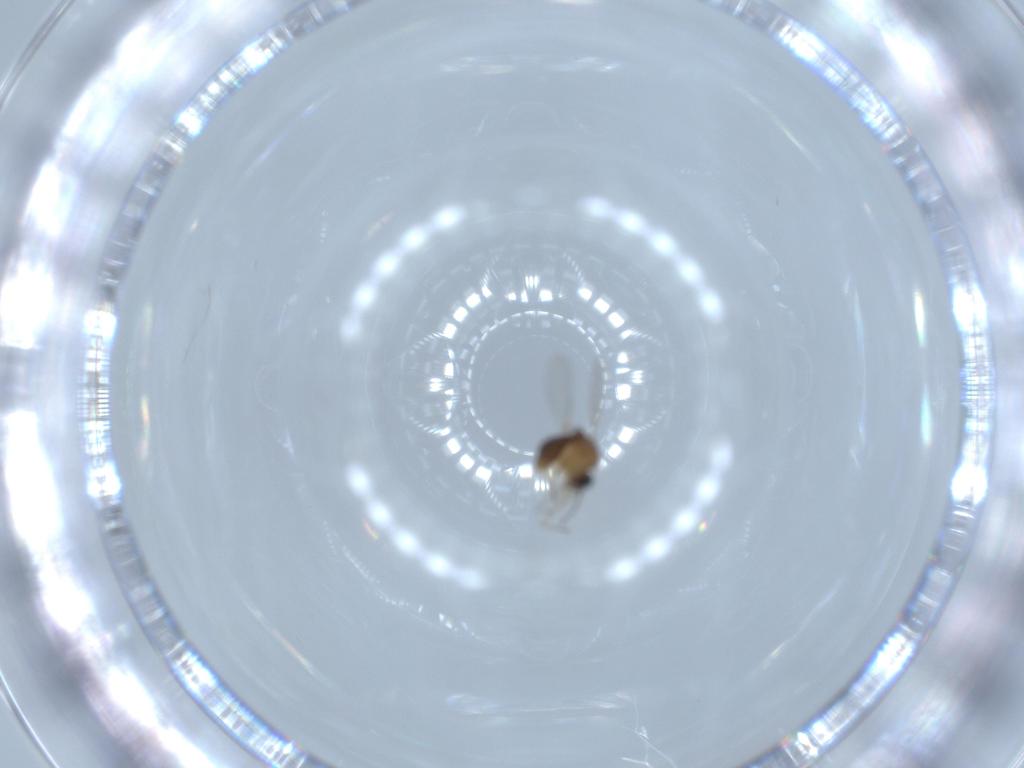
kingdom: Animalia
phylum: Arthropoda
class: Insecta
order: Diptera
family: Ceratopogonidae
